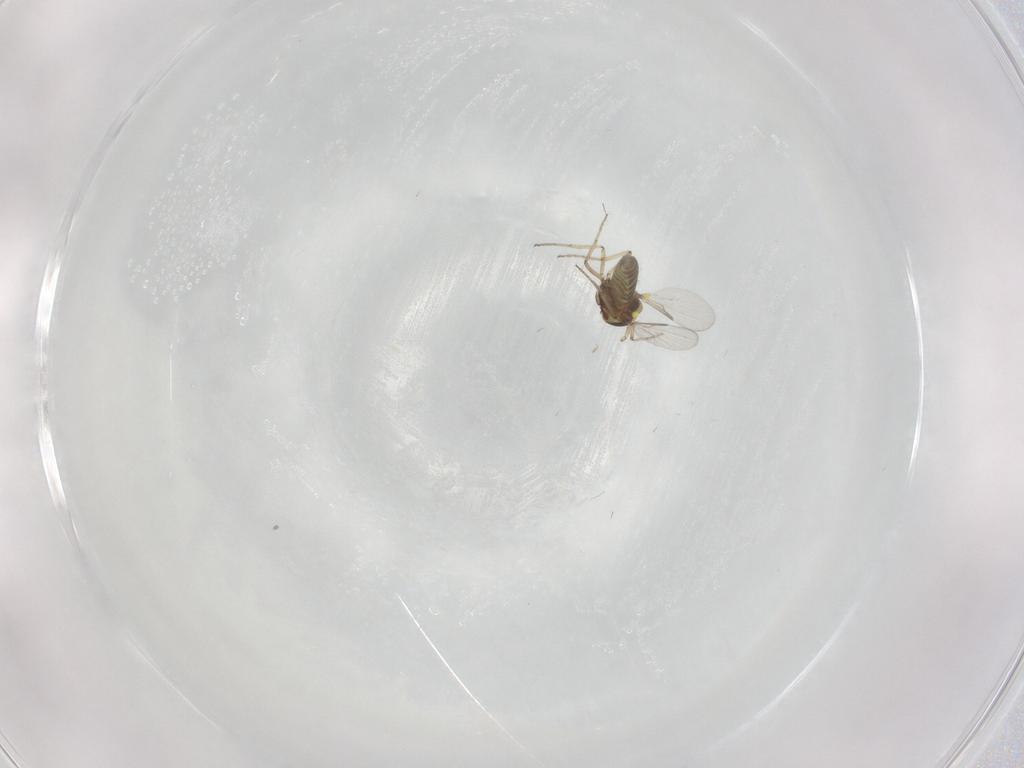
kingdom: Animalia
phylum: Arthropoda
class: Insecta
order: Diptera
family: Ceratopogonidae
